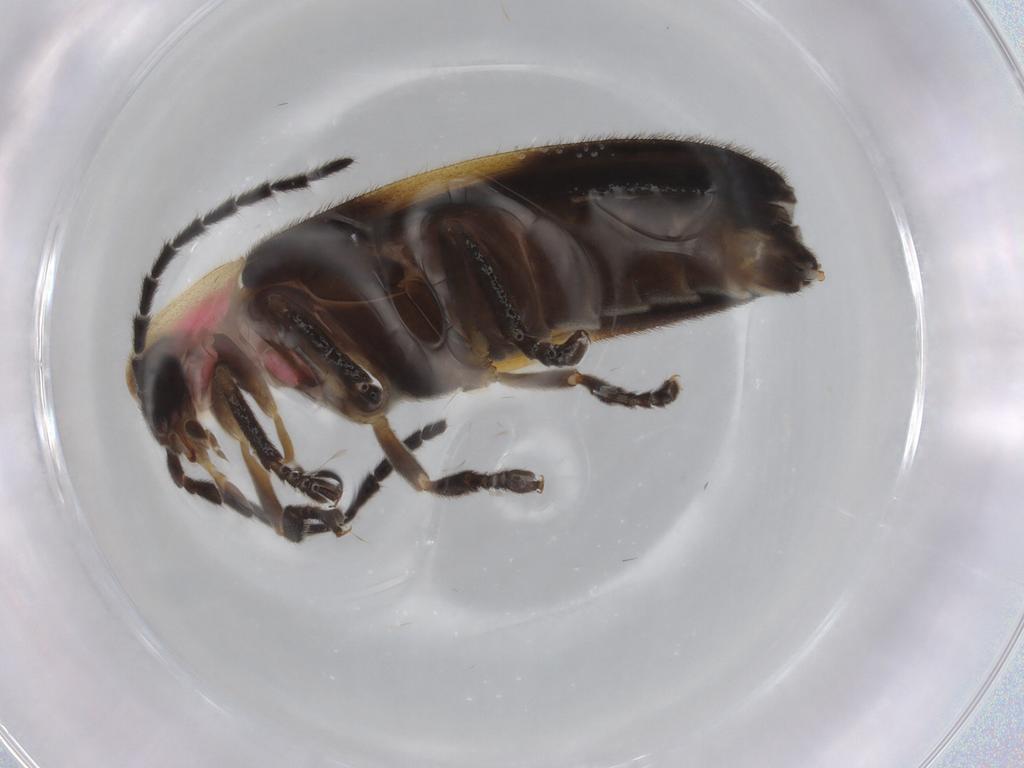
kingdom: Animalia
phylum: Arthropoda
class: Insecta
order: Coleoptera
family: Lampyridae
